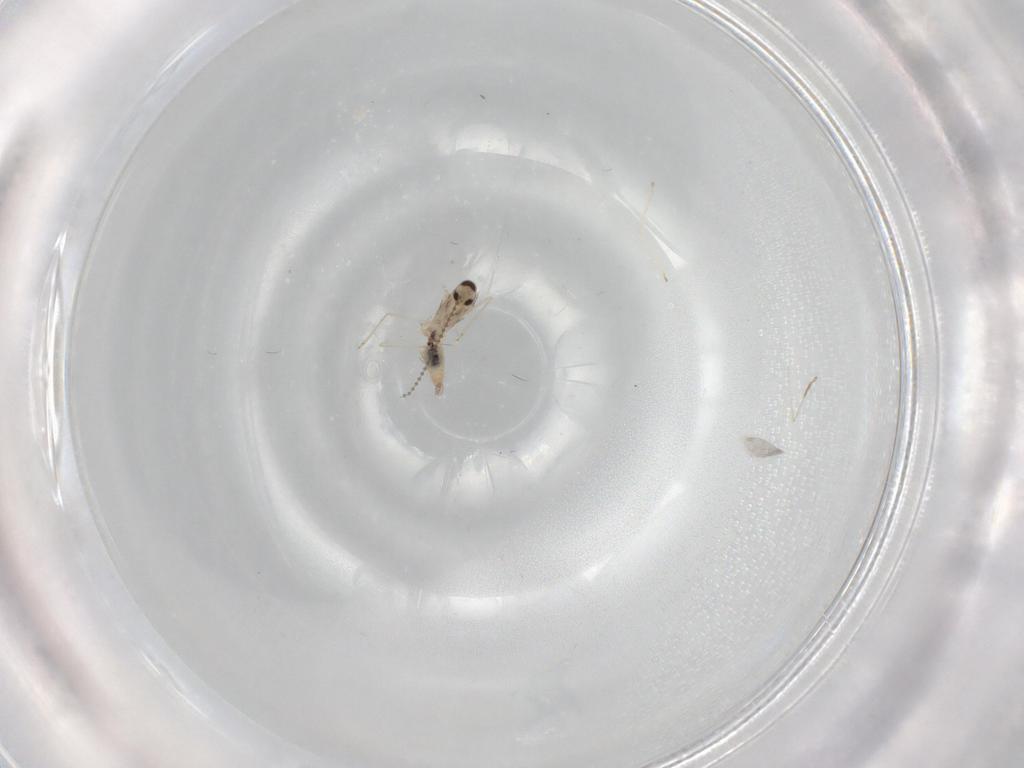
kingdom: Animalia
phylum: Arthropoda
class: Insecta
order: Diptera
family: Cecidomyiidae
